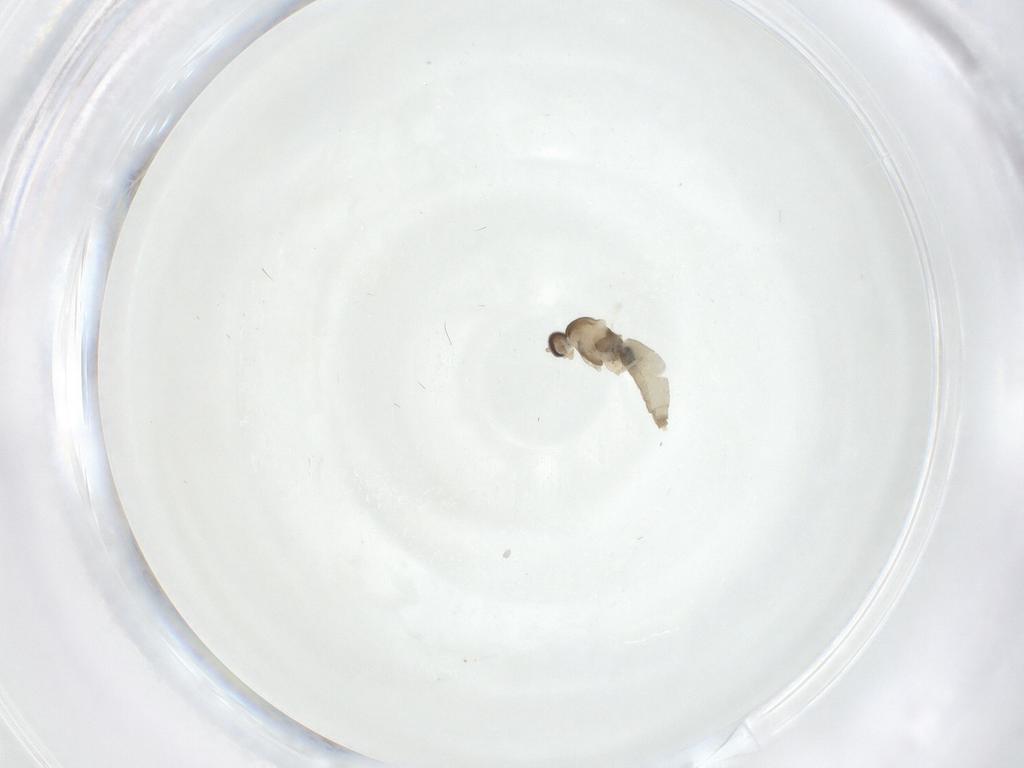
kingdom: Animalia
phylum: Arthropoda
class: Insecta
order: Diptera
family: Cecidomyiidae
